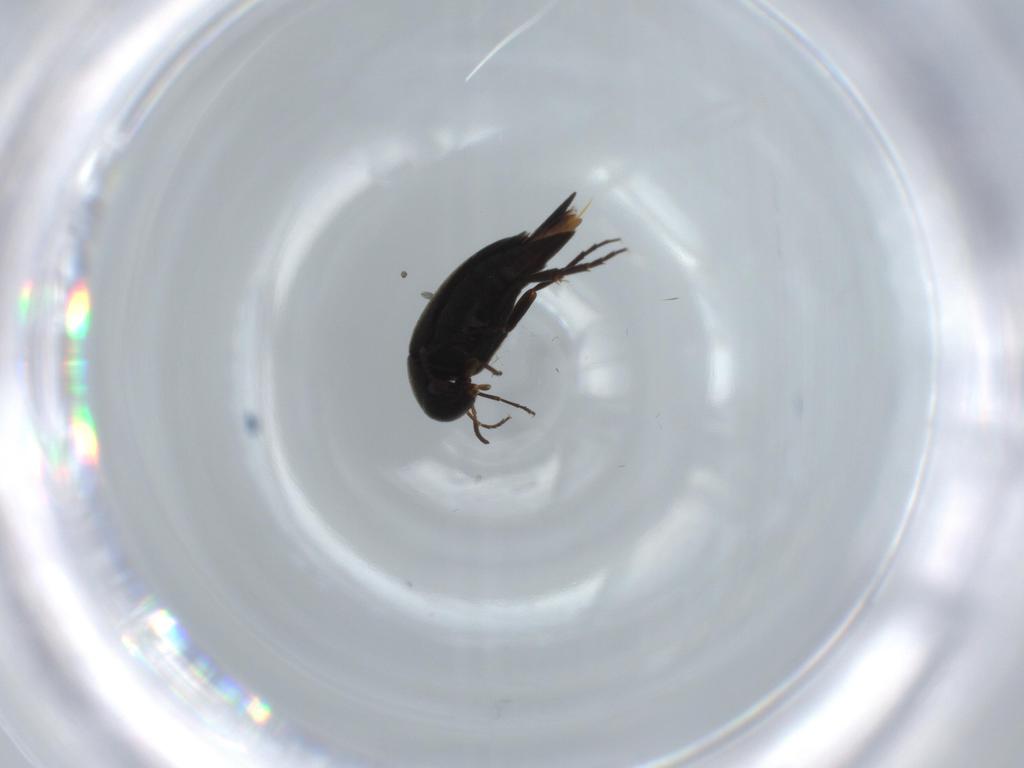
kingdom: Animalia
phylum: Arthropoda
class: Insecta
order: Coleoptera
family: Mordellidae
